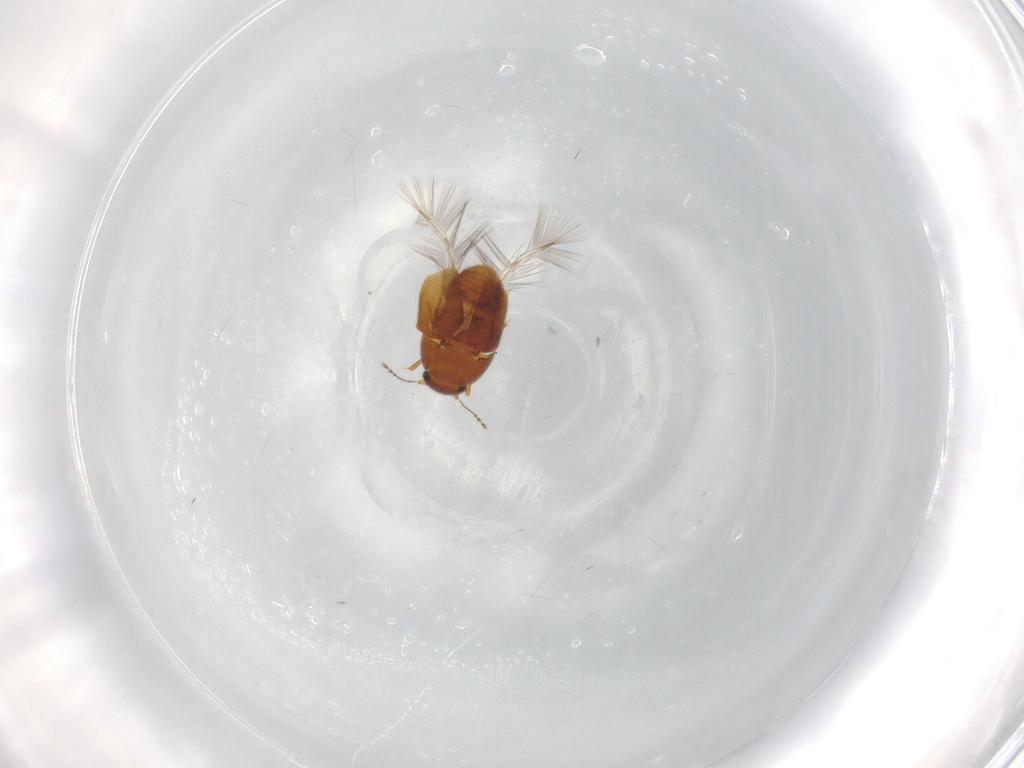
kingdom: Animalia
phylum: Arthropoda
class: Insecta
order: Coleoptera
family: Ptiliidae
